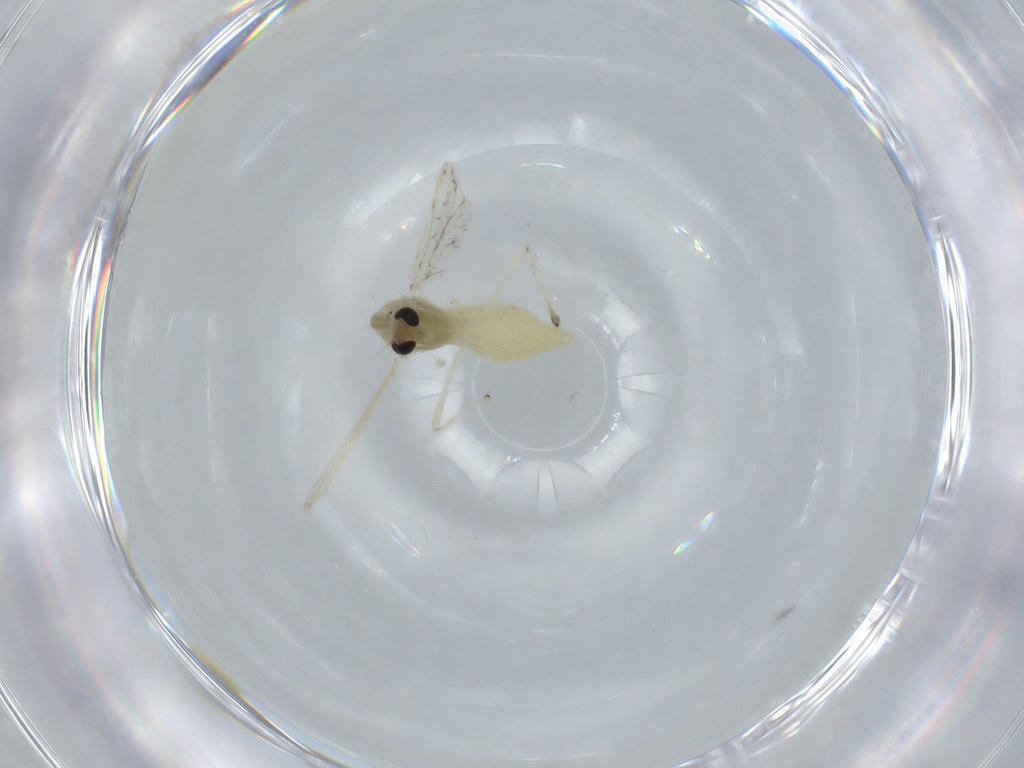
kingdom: Animalia
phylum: Arthropoda
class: Insecta
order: Diptera
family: Chironomidae
